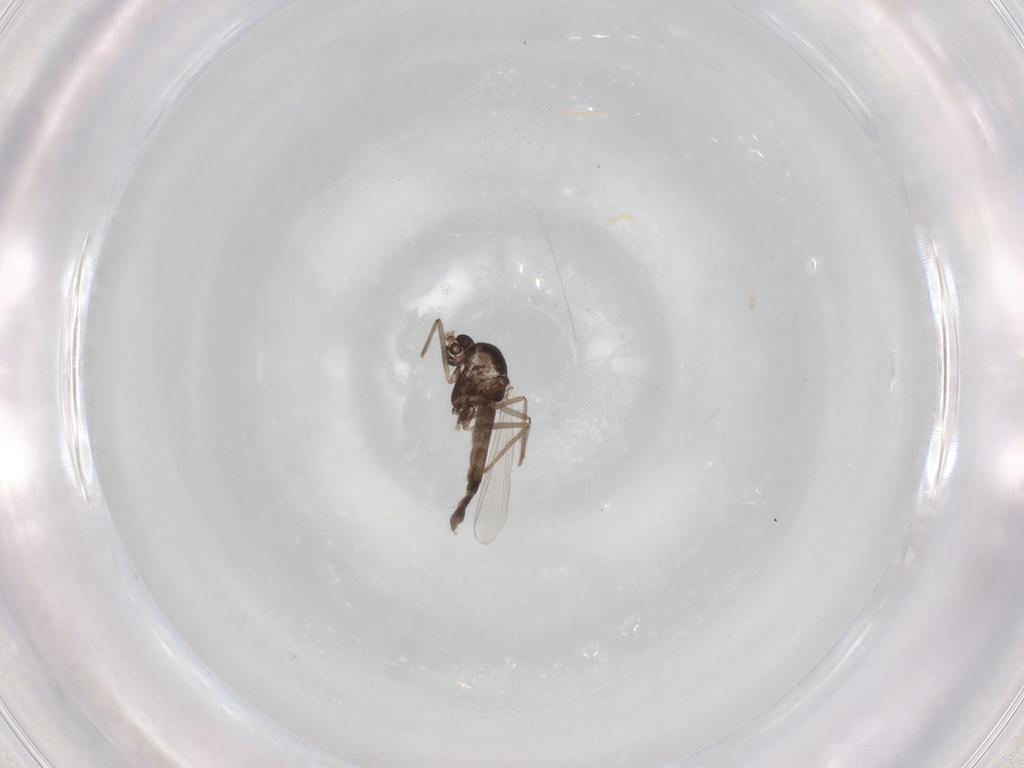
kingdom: Animalia
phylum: Arthropoda
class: Insecta
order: Diptera
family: Chironomidae
